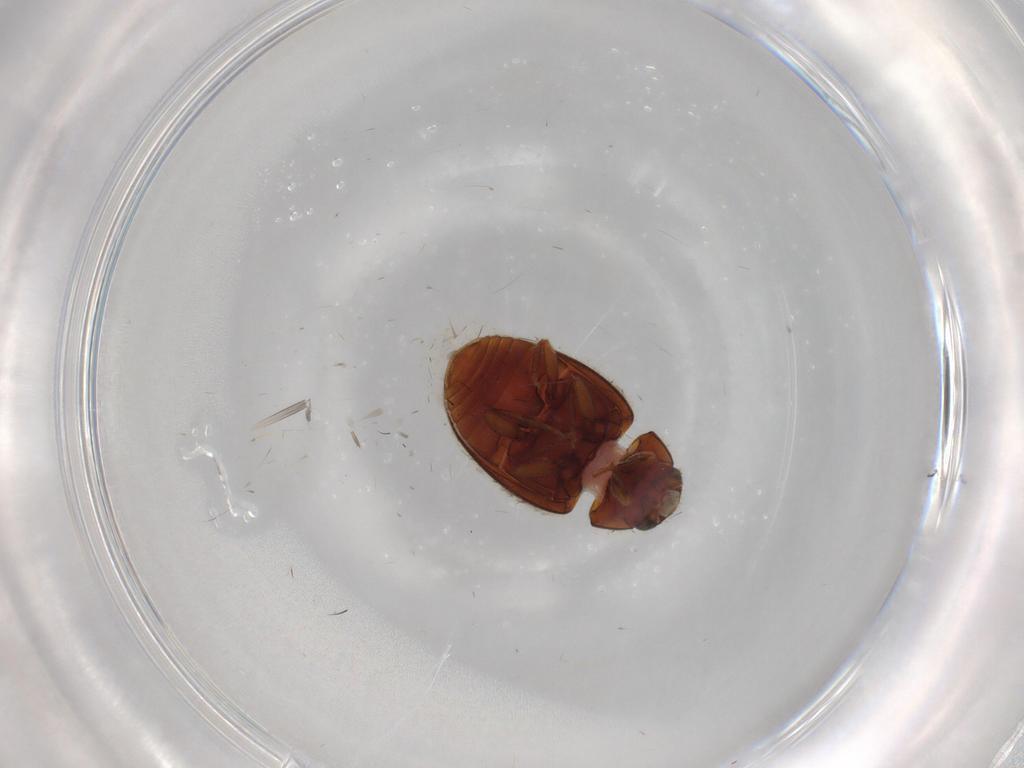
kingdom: Animalia
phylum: Arthropoda
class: Insecta
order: Coleoptera
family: Coccinellidae
